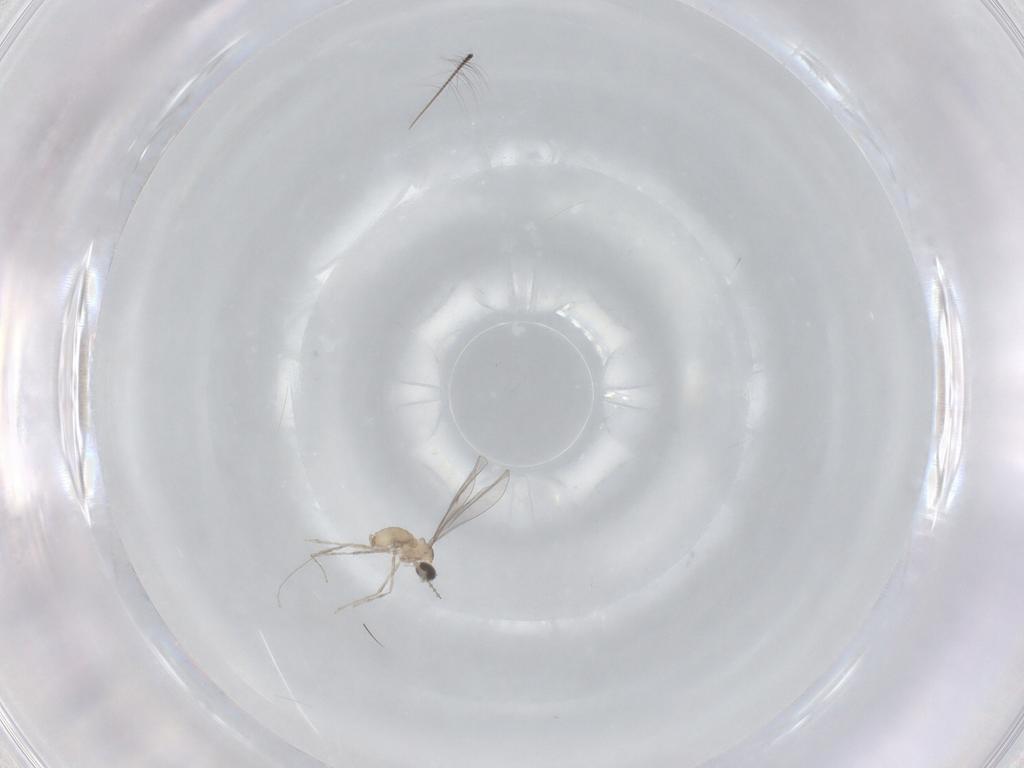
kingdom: Animalia
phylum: Arthropoda
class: Insecta
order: Diptera
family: Cecidomyiidae
